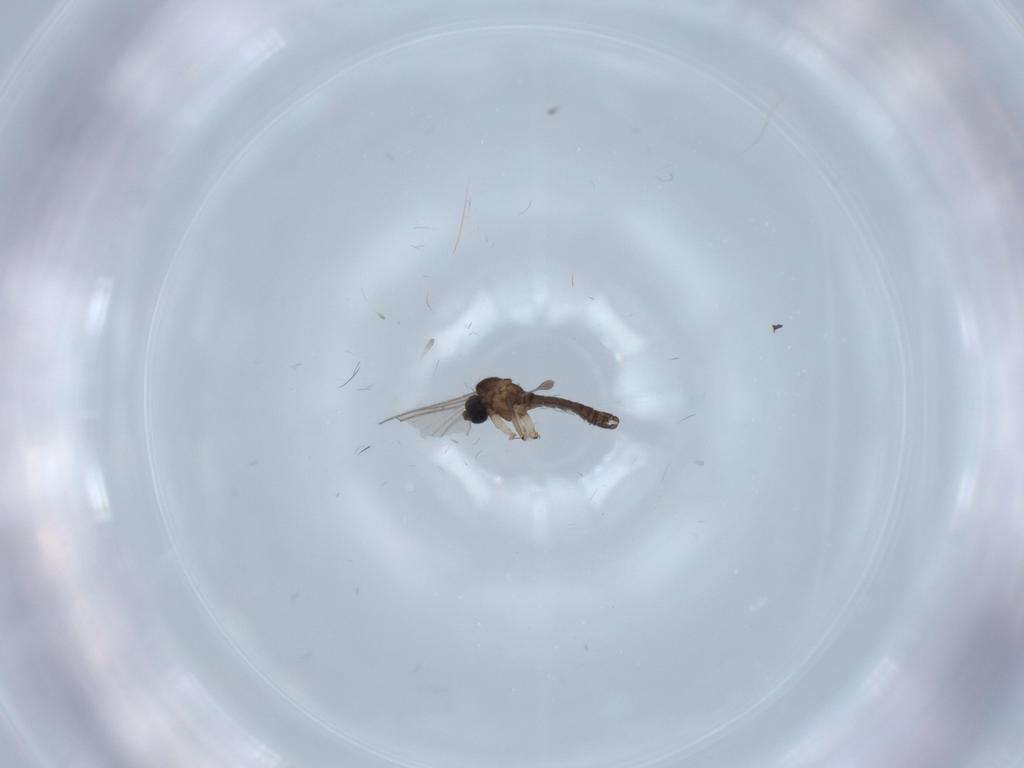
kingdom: Animalia
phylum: Arthropoda
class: Insecta
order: Diptera
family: Sciaridae
